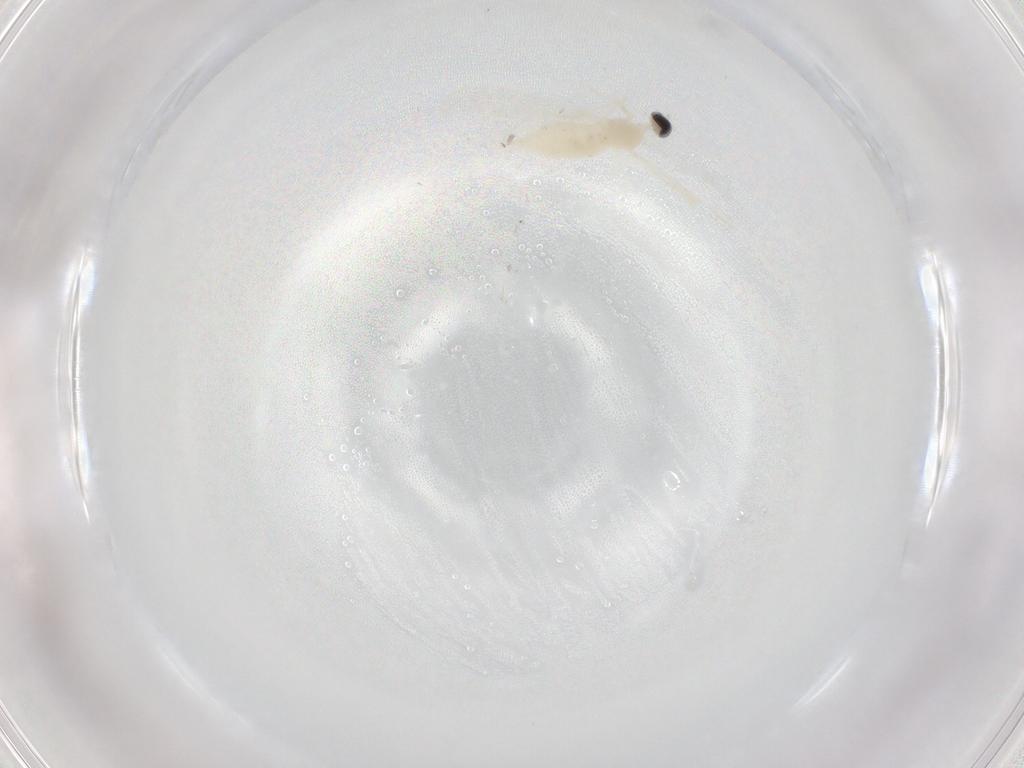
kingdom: Animalia
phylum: Arthropoda
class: Insecta
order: Diptera
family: Cecidomyiidae
